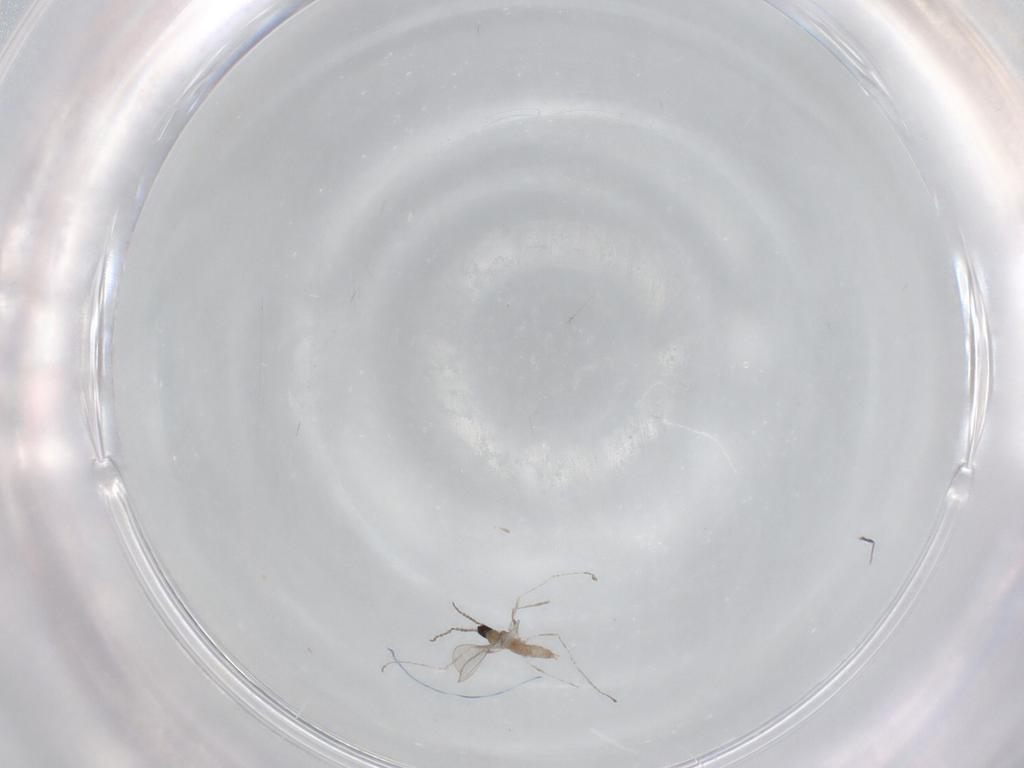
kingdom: Animalia
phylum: Arthropoda
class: Insecta
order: Diptera
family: Cecidomyiidae
